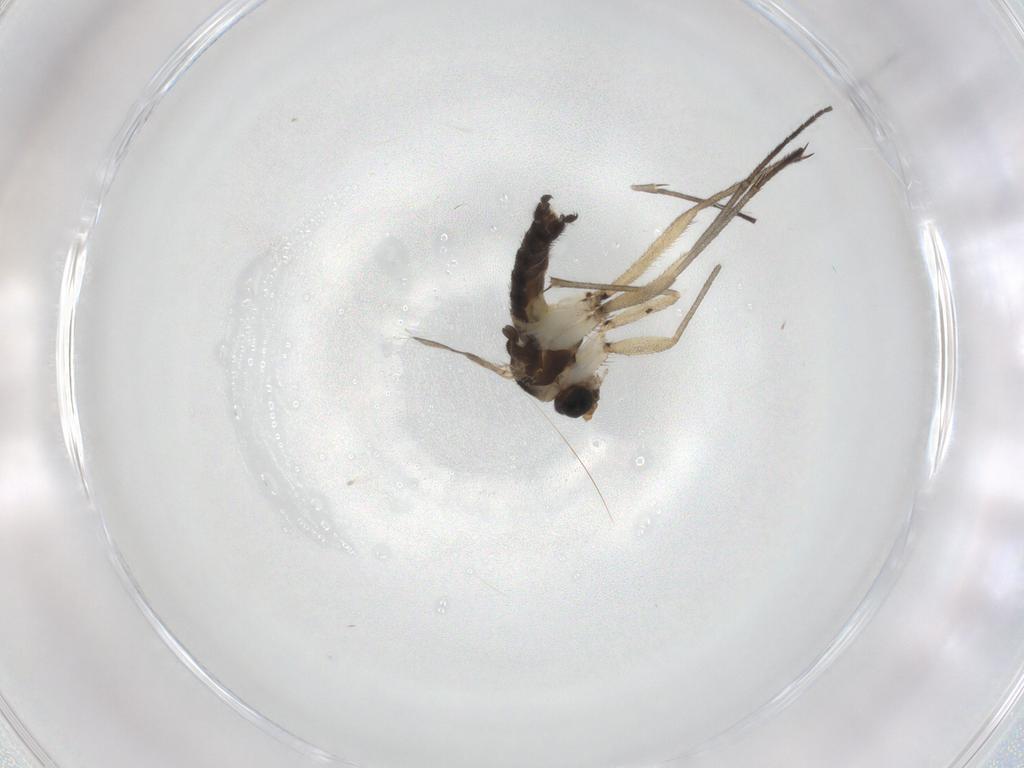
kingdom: Animalia
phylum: Arthropoda
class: Insecta
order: Diptera
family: Sciaridae
